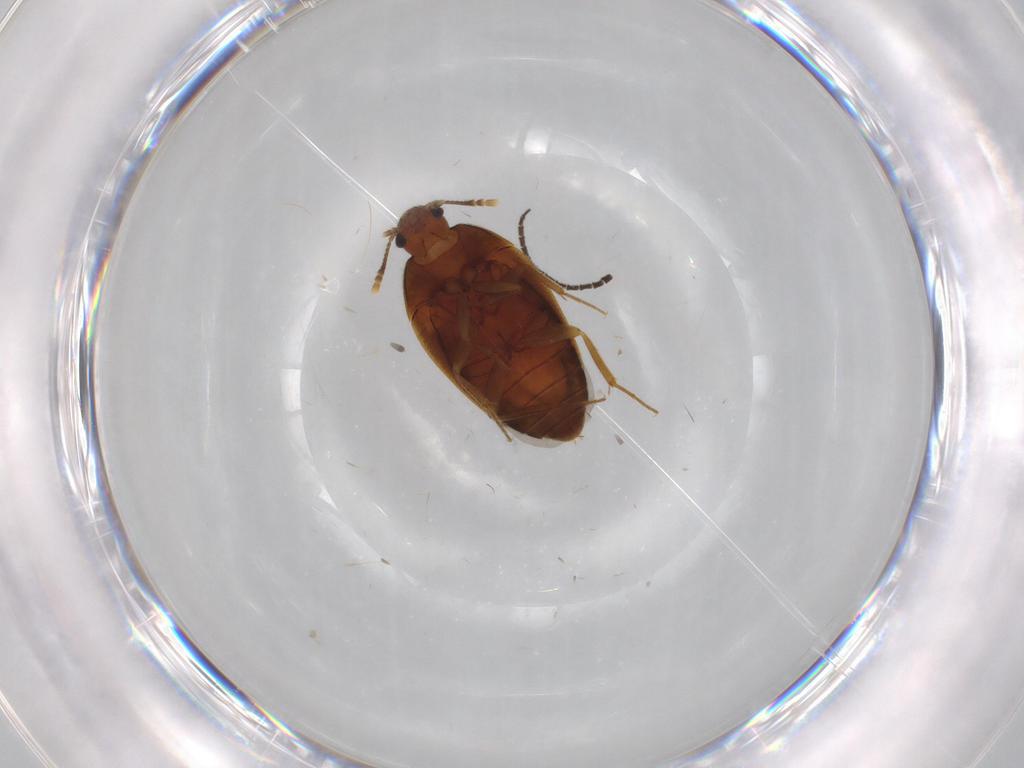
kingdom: Animalia
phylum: Arthropoda
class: Insecta
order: Coleoptera
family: Mycetophagidae
